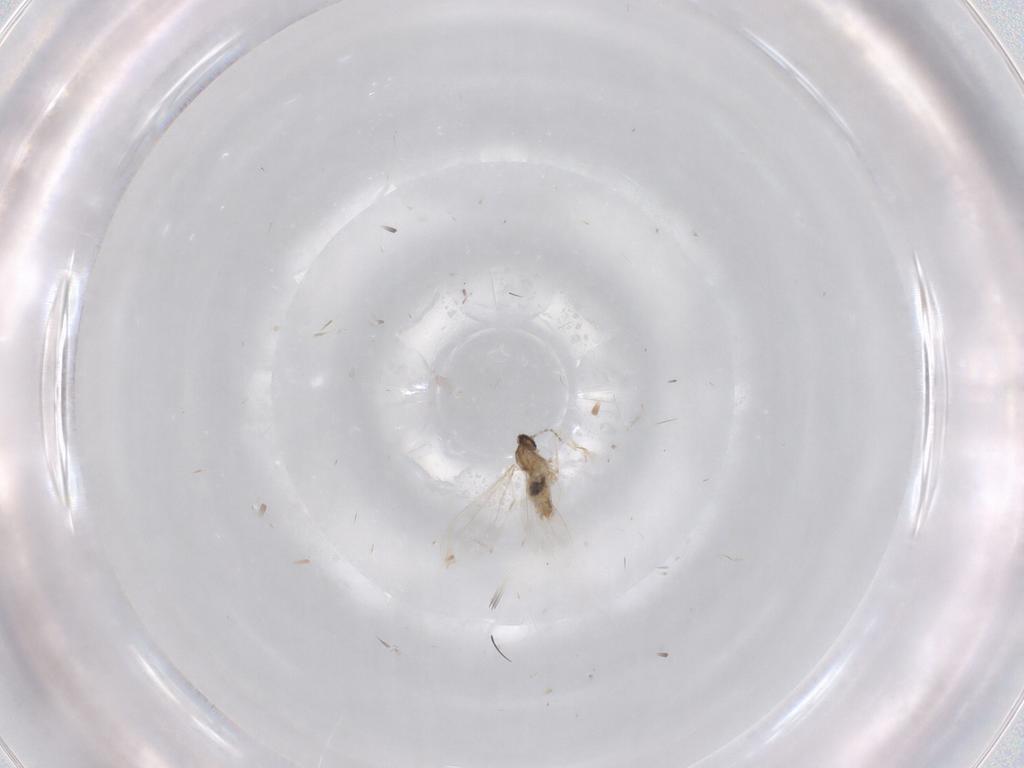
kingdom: Animalia
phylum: Arthropoda
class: Insecta
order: Diptera
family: Cecidomyiidae
